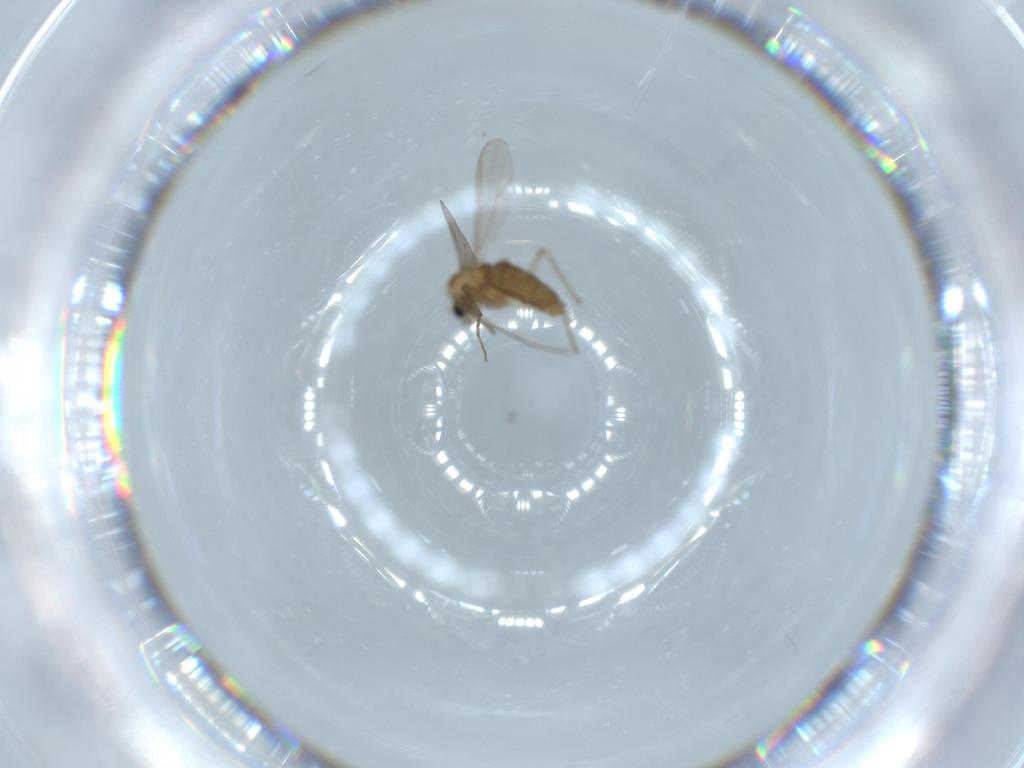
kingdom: Animalia
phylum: Arthropoda
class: Insecta
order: Diptera
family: Chironomidae
